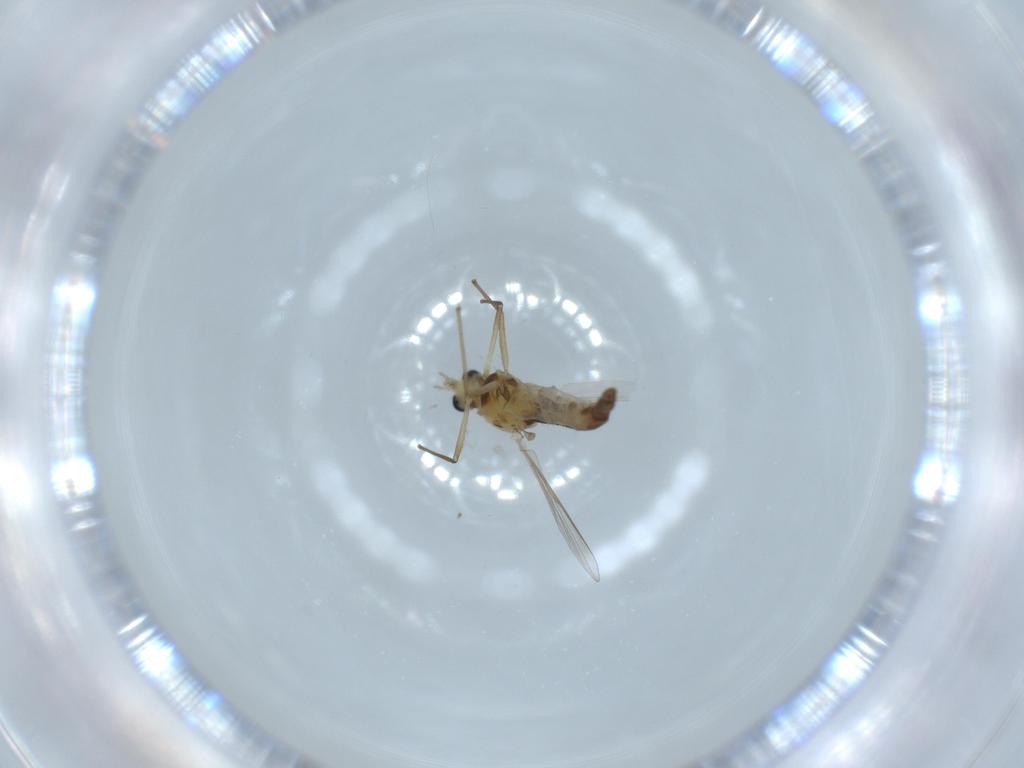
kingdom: Animalia
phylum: Arthropoda
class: Insecta
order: Diptera
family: Chironomidae
